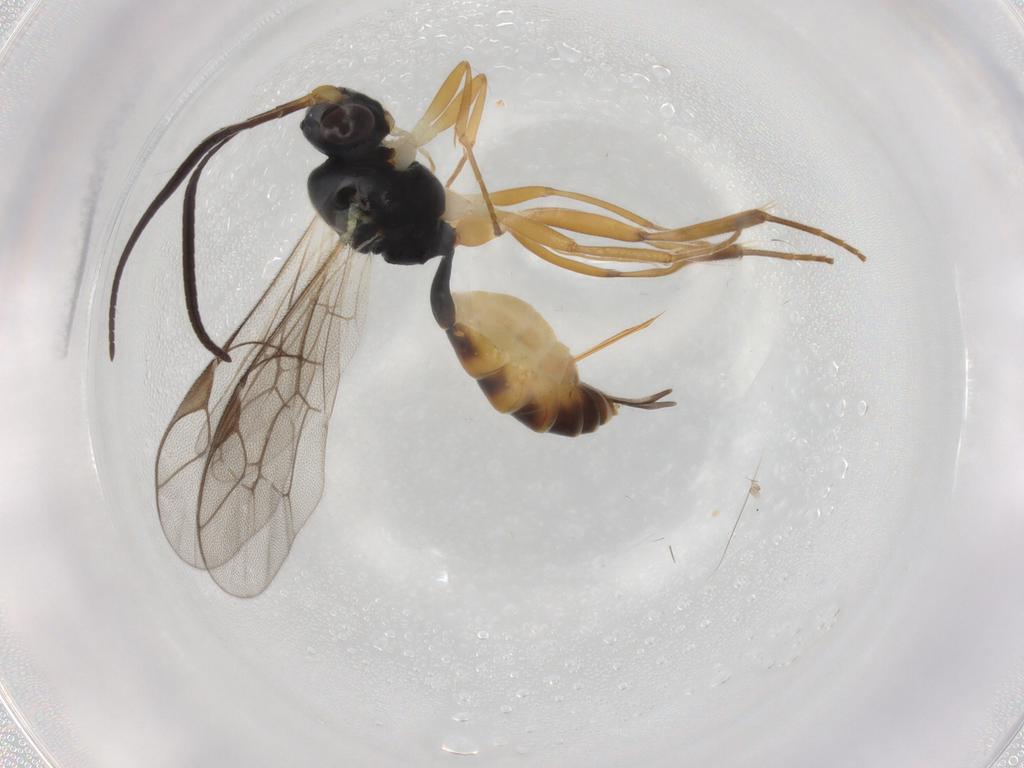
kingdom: Animalia
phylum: Arthropoda
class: Insecta
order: Hymenoptera
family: Ichneumonidae
